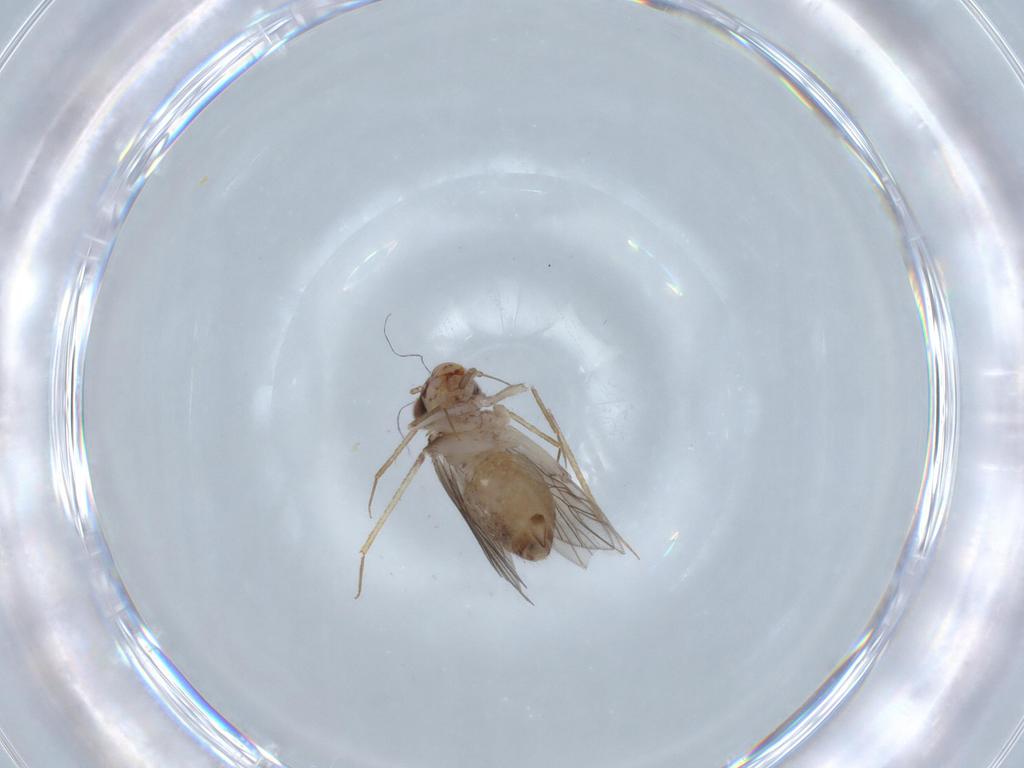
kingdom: Animalia
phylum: Arthropoda
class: Insecta
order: Psocodea
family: Lepidopsocidae
